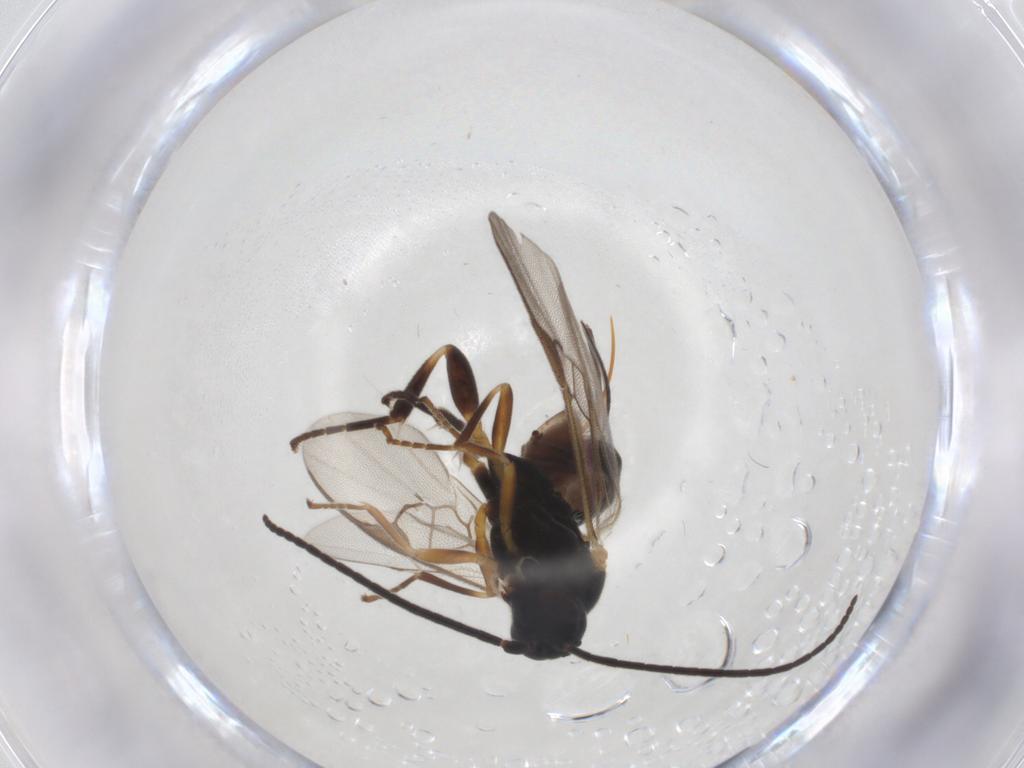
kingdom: Animalia
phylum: Arthropoda
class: Insecta
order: Hymenoptera
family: Braconidae
